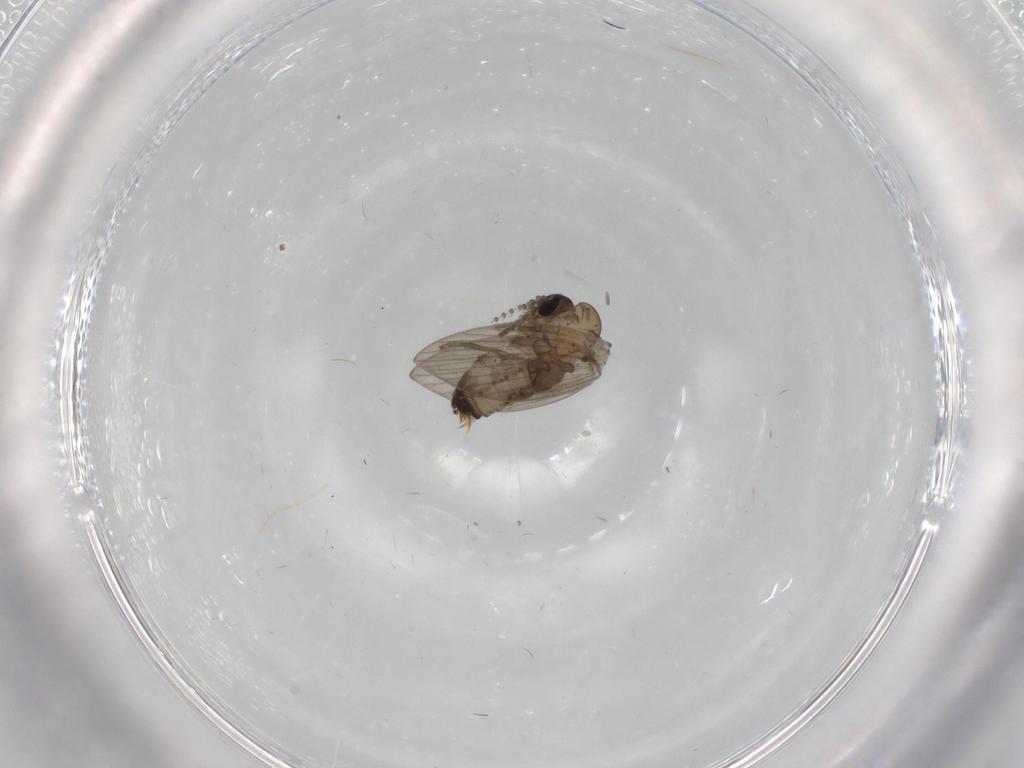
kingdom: Animalia
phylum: Arthropoda
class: Insecta
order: Diptera
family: Psychodidae
